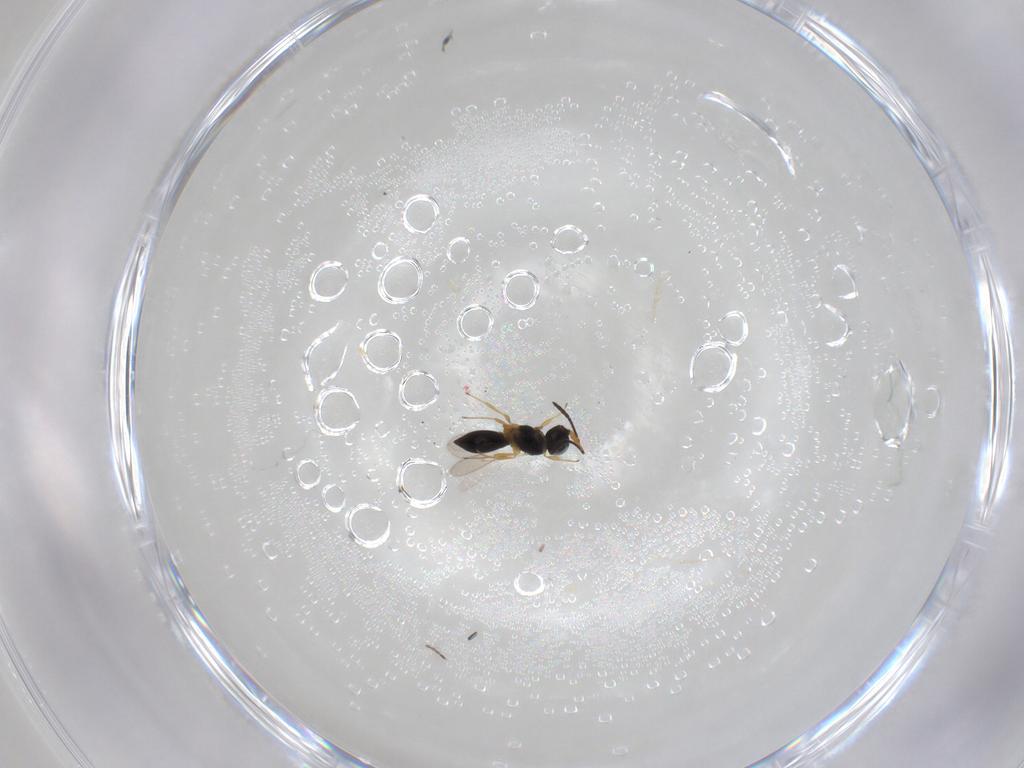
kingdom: Animalia
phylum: Arthropoda
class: Insecta
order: Hymenoptera
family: Scelionidae
